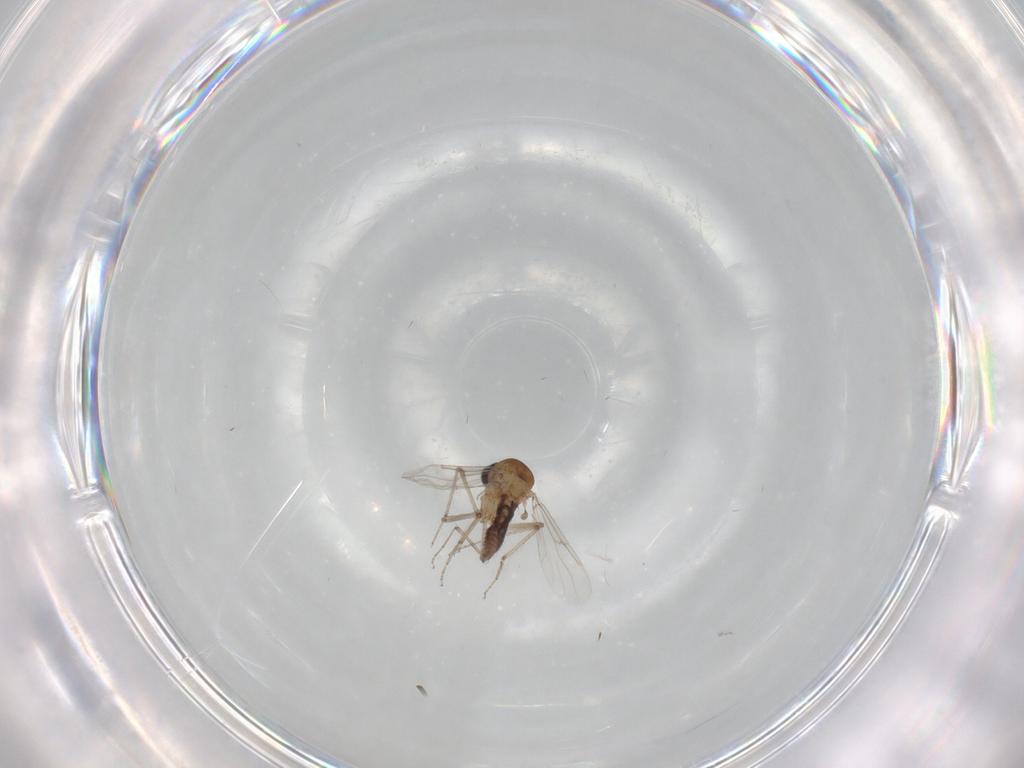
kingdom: Animalia
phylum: Arthropoda
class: Insecta
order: Diptera
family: Ceratopogonidae
